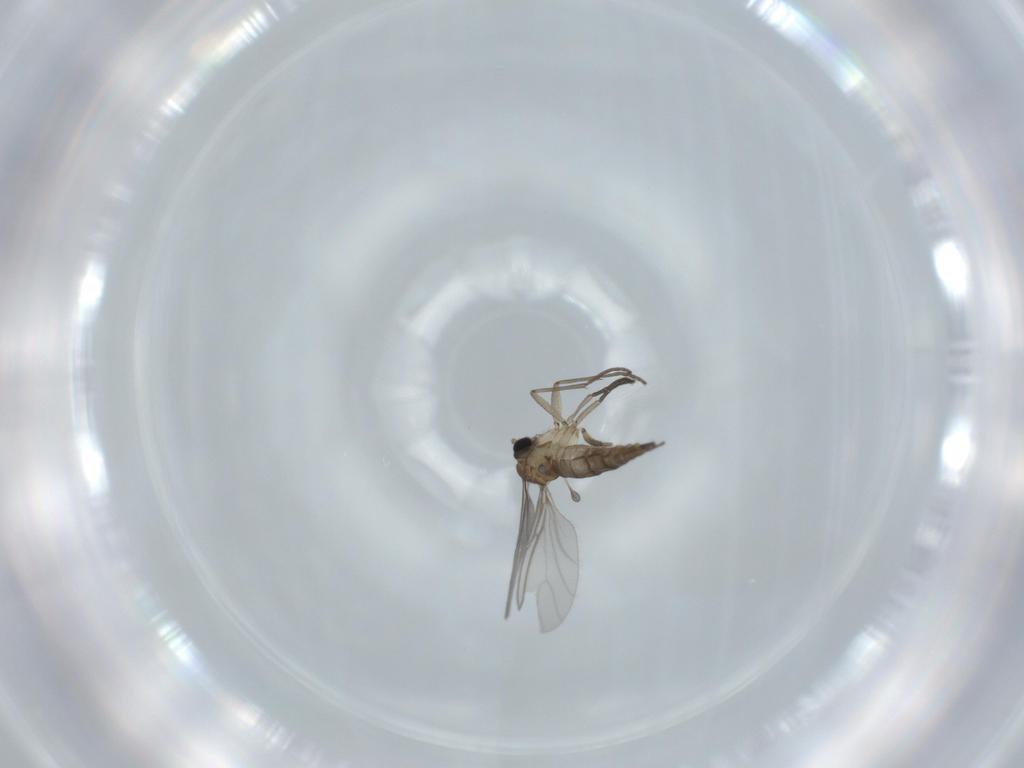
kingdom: Animalia
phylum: Arthropoda
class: Insecta
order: Diptera
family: Sciaridae
